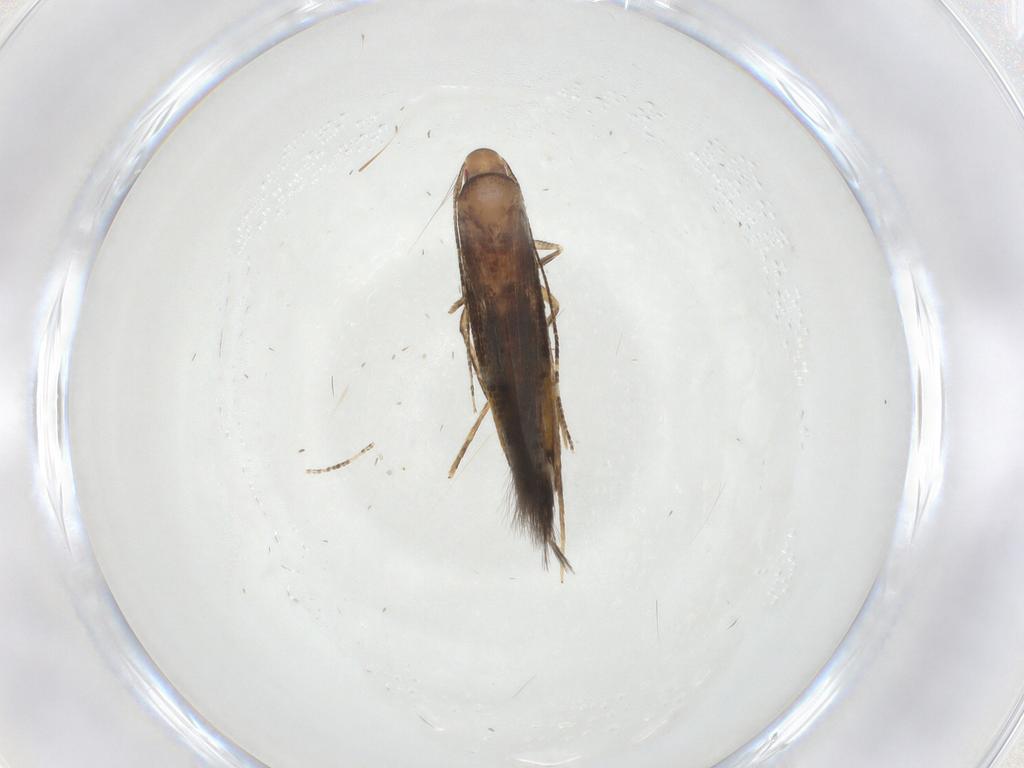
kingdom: Animalia
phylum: Arthropoda
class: Insecta
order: Lepidoptera
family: Cosmopterigidae
